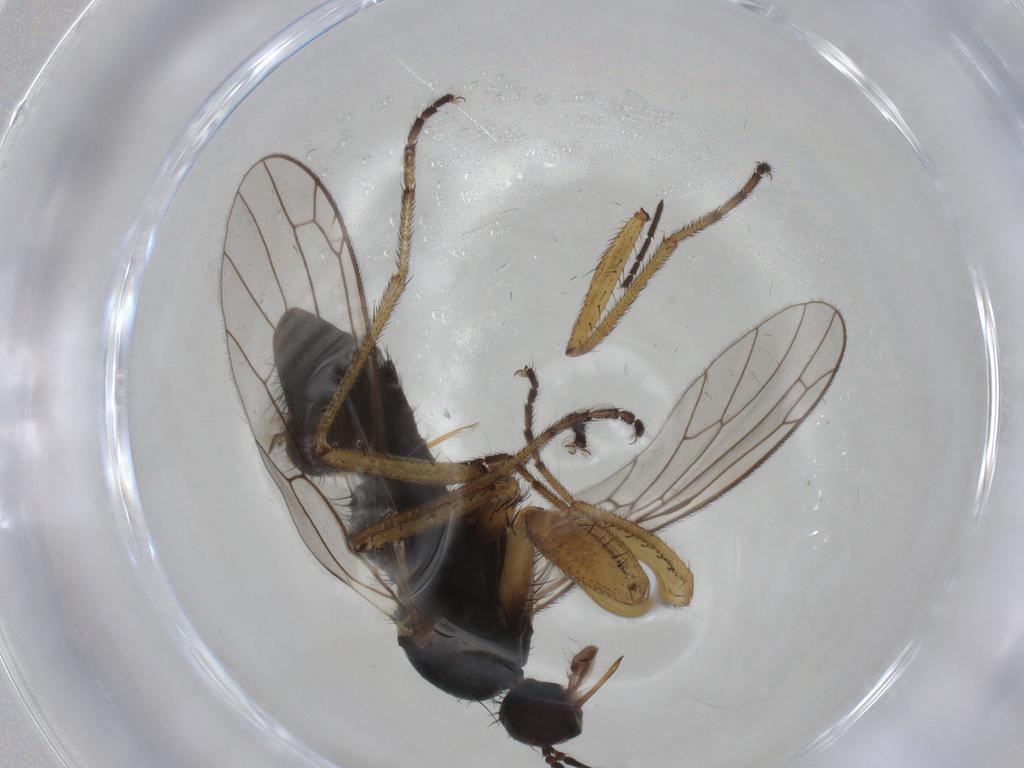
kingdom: Animalia
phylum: Arthropoda
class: Insecta
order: Diptera
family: Chironomidae
